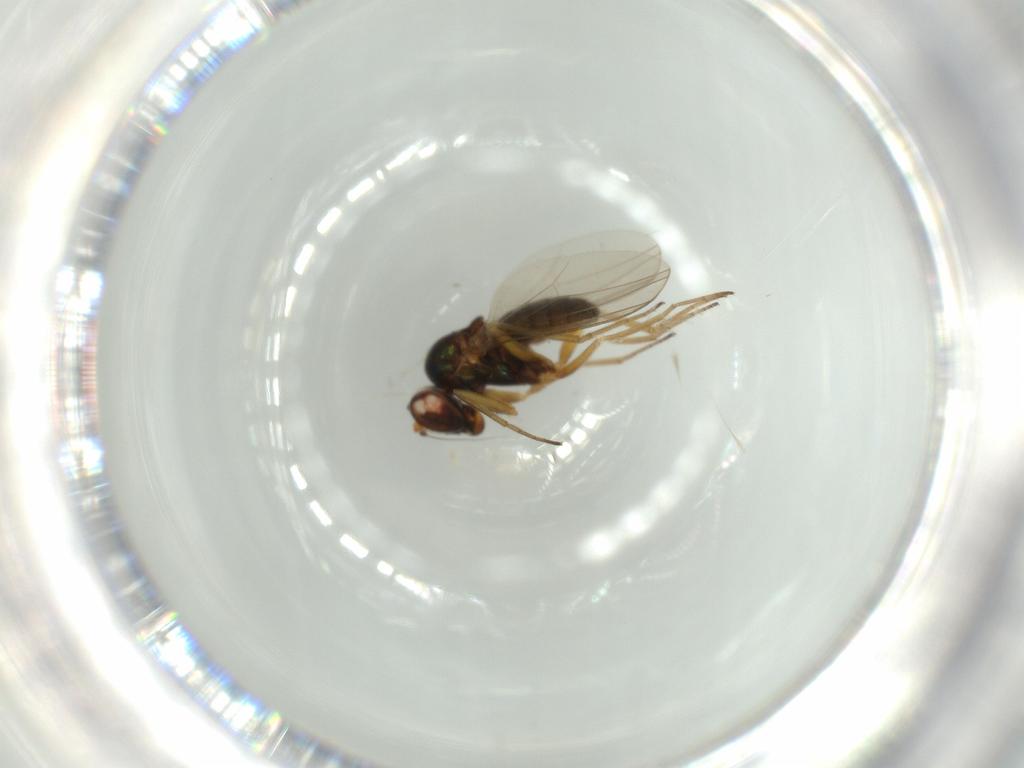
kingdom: Animalia
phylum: Arthropoda
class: Insecta
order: Diptera
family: Dolichopodidae
